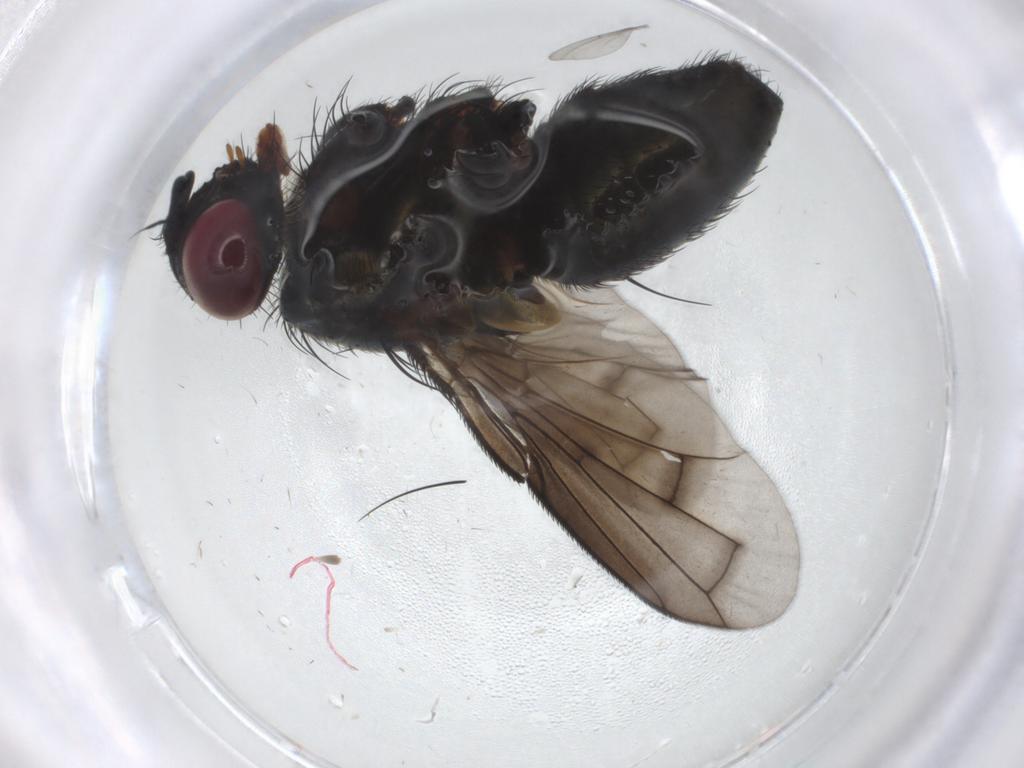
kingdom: Animalia
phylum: Arthropoda
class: Insecta
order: Diptera
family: Tachinidae
